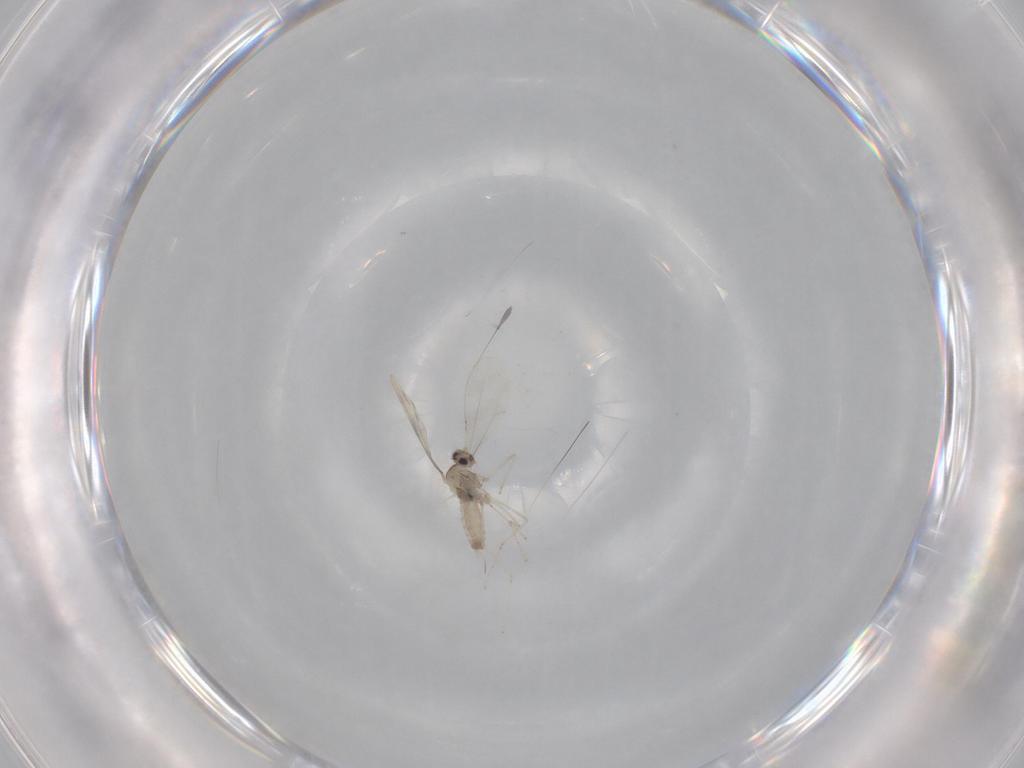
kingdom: Animalia
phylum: Arthropoda
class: Insecta
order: Diptera
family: Cecidomyiidae
